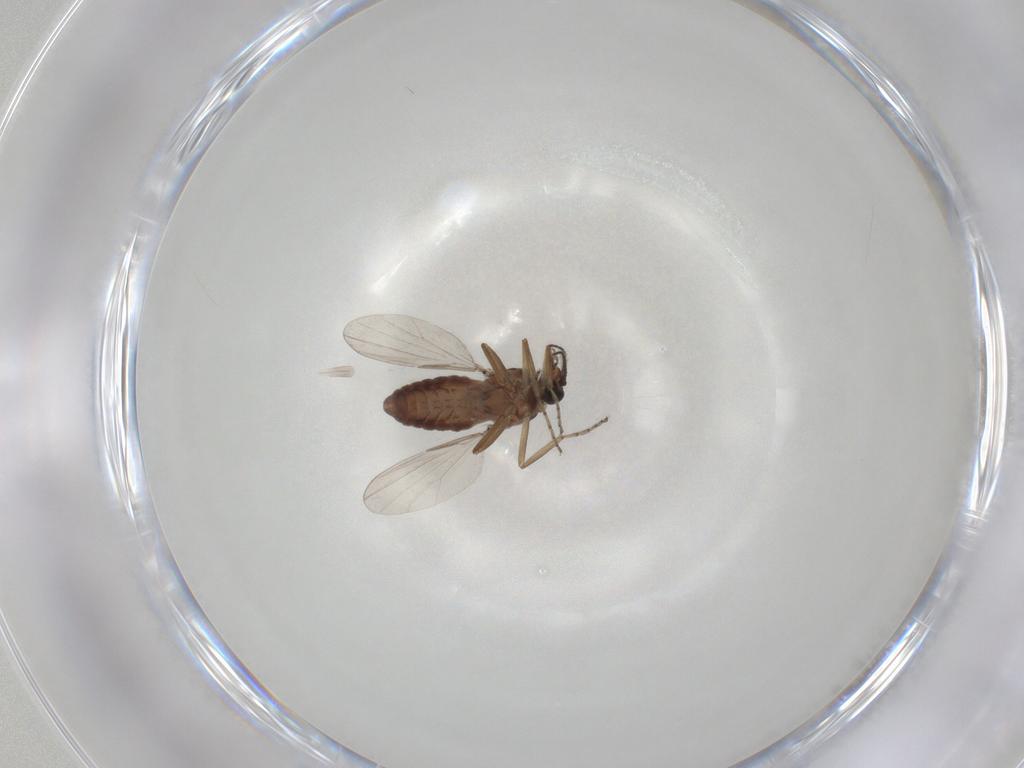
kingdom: Animalia
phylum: Arthropoda
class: Insecta
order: Diptera
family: Ceratopogonidae
